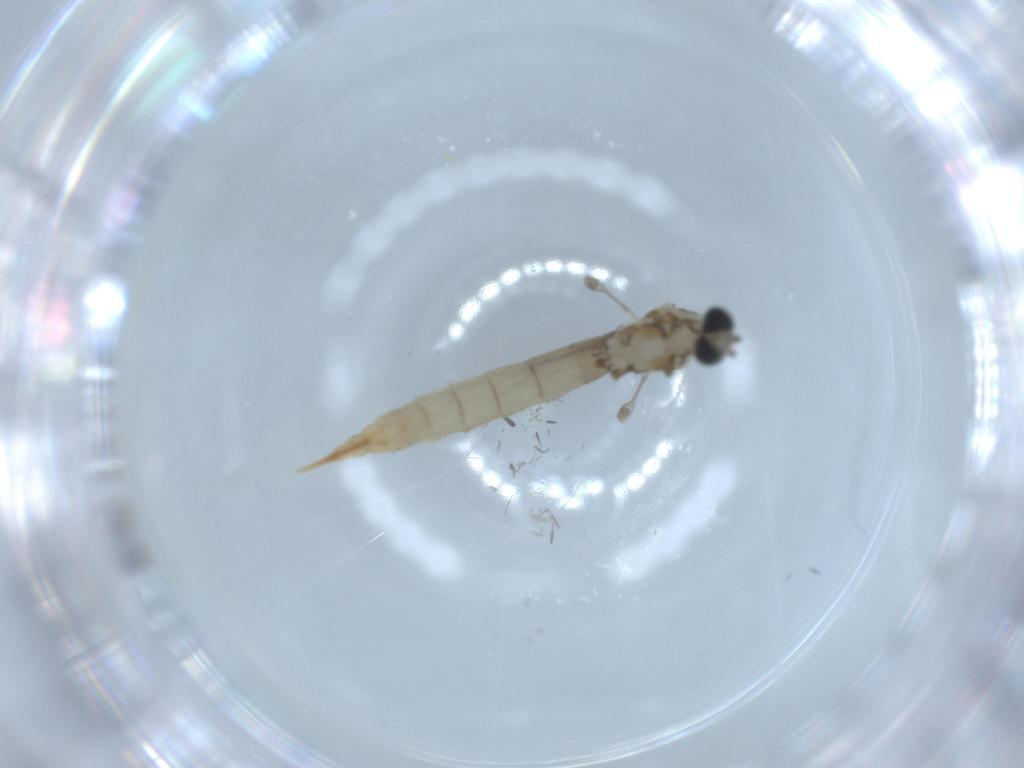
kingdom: Animalia
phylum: Arthropoda
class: Insecta
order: Diptera
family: Limoniidae
